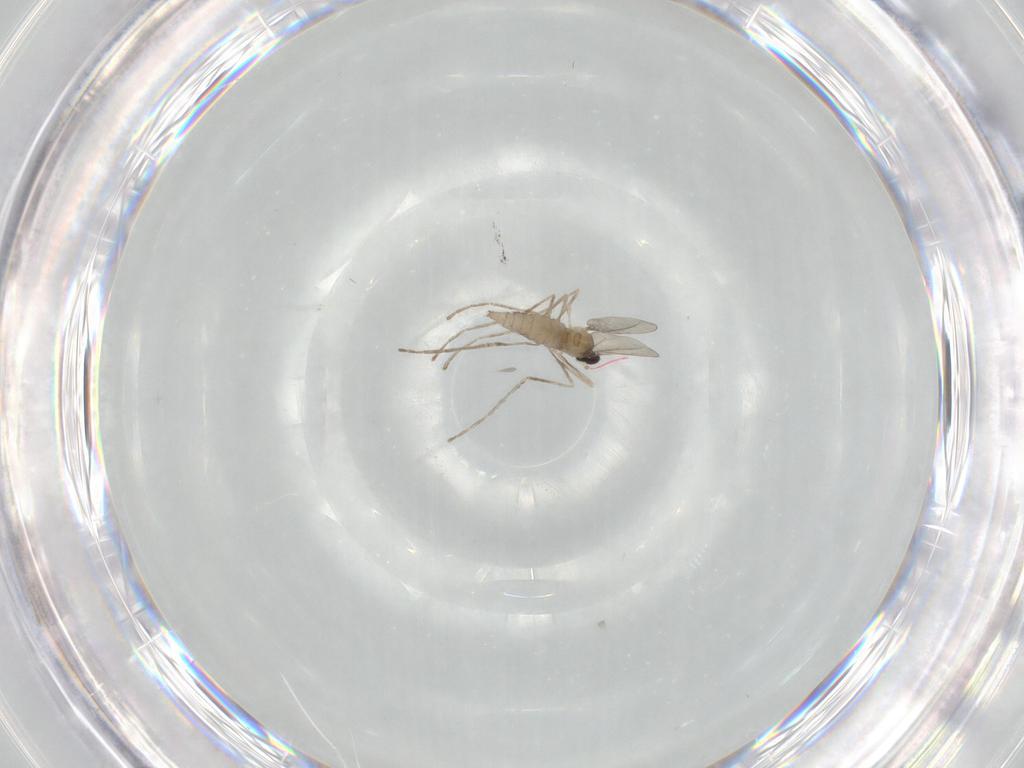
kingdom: Animalia
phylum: Arthropoda
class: Insecta
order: Diptera
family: Cecidomyiidae
